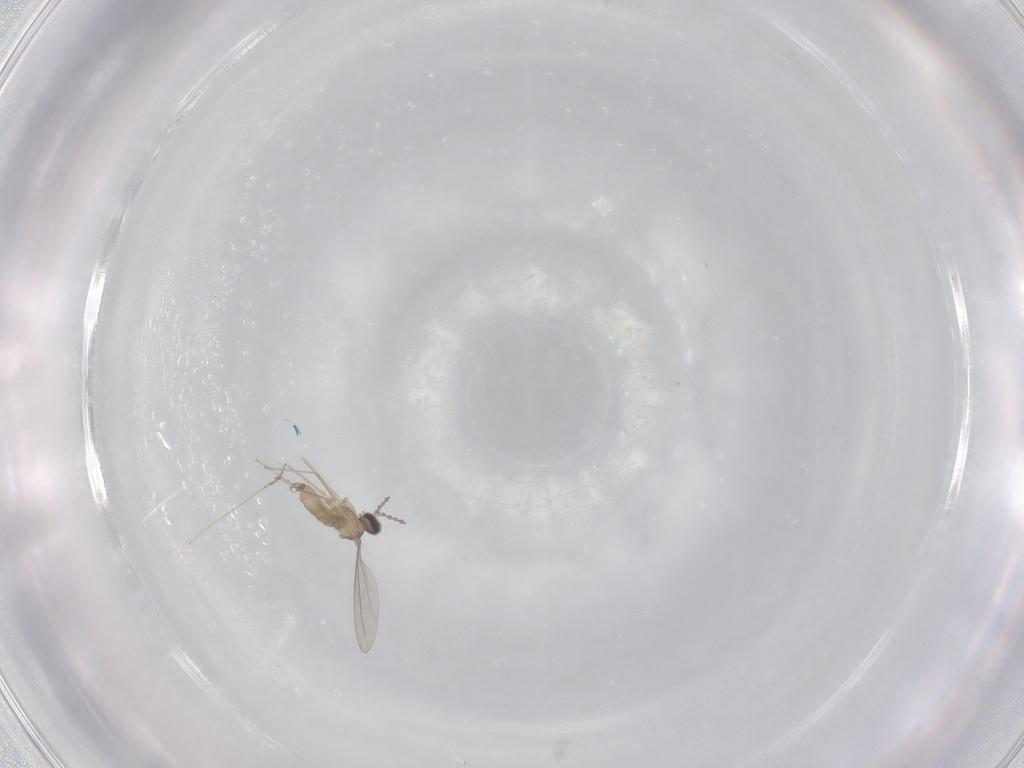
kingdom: Animalia
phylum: Arthropoda
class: Insecta
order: Diptera
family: Cecidomyiidae
